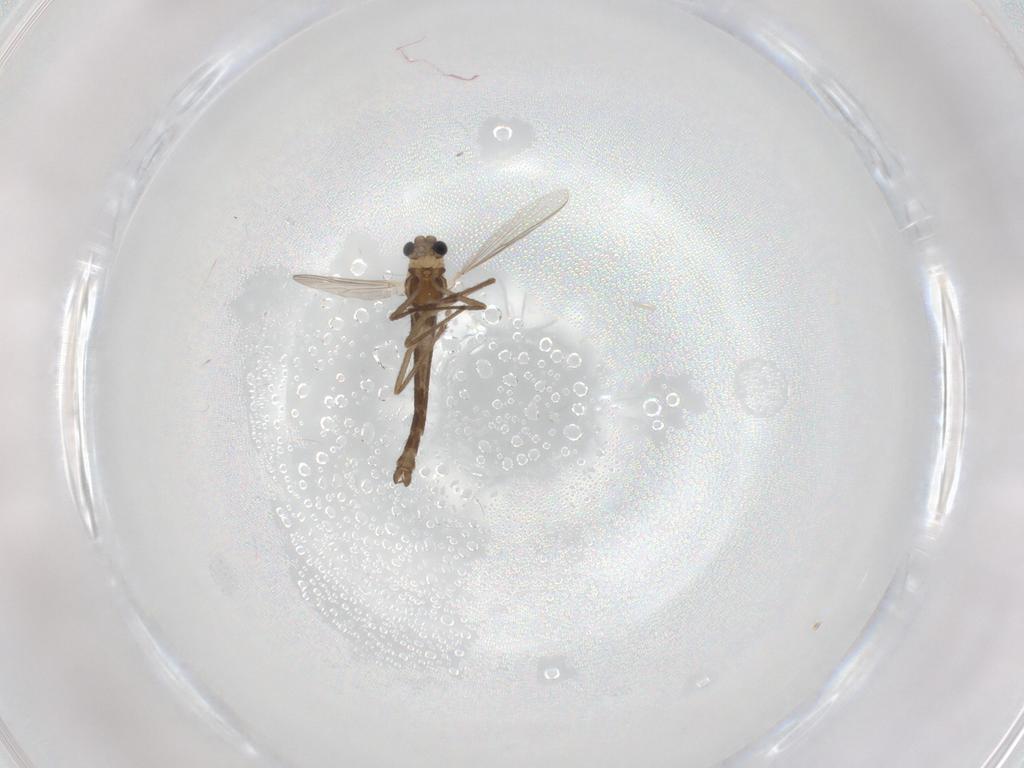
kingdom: Animalia
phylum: Arthropoda
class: Insecta
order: Diptera
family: Chironomidae
